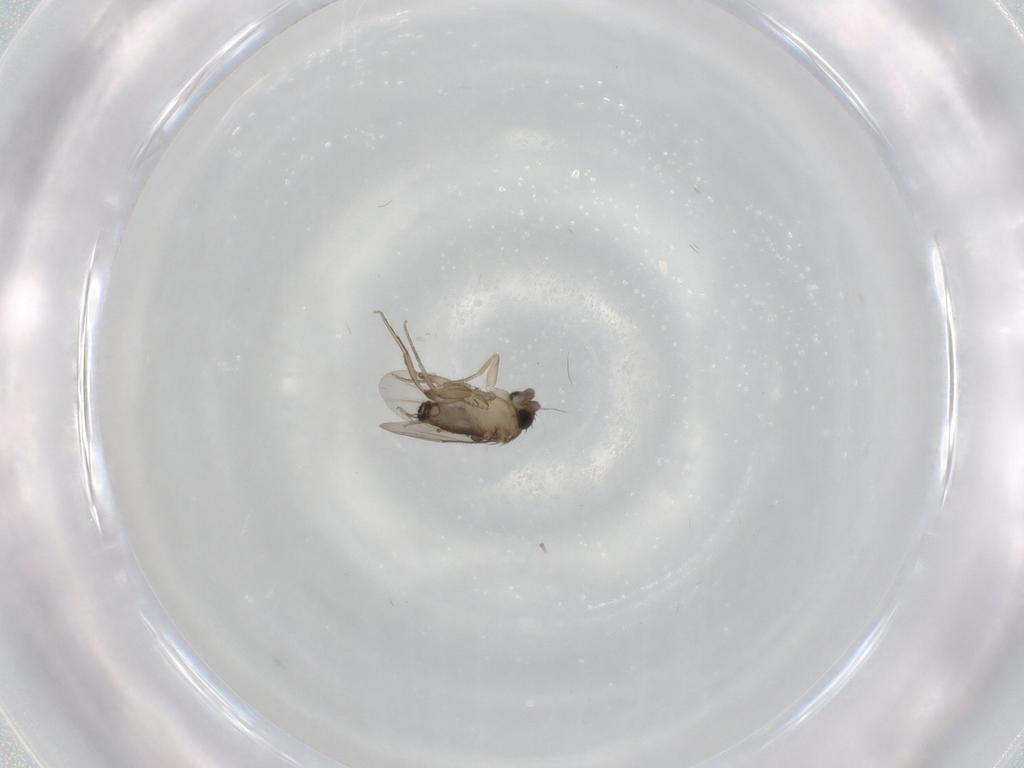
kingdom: Animalia
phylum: Arthropoda
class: Insecta
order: Diptera
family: Phoridae
